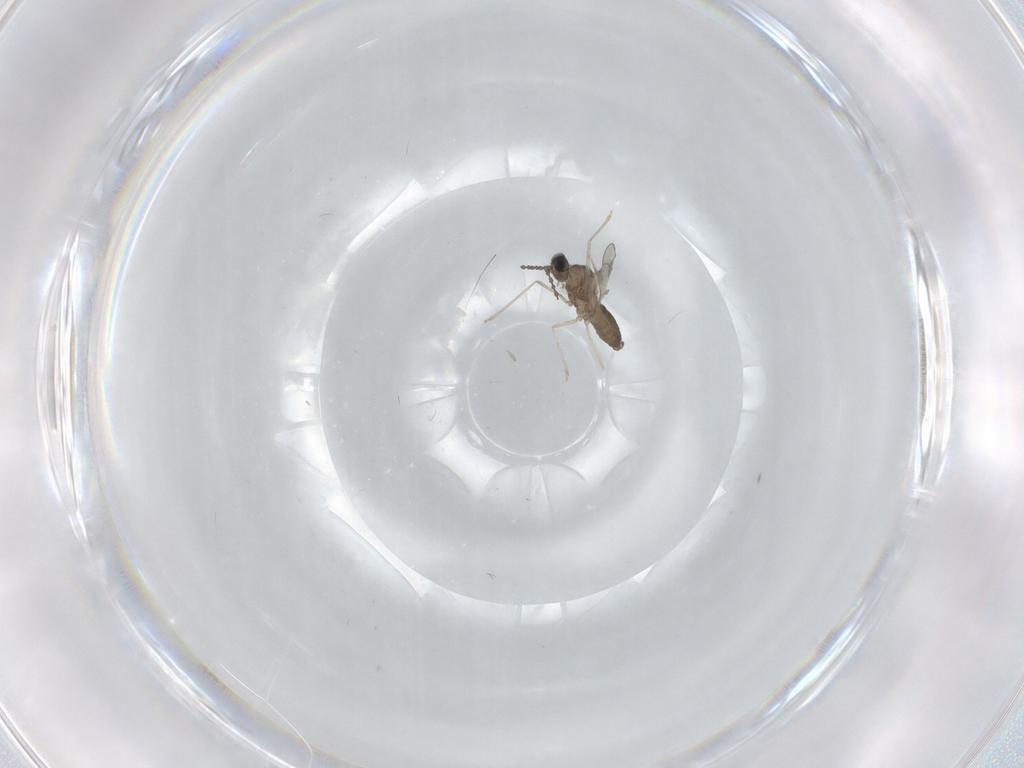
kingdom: Animalia
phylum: Arthropoda
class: Insecta
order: Diptera
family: Cecidomyiidae
